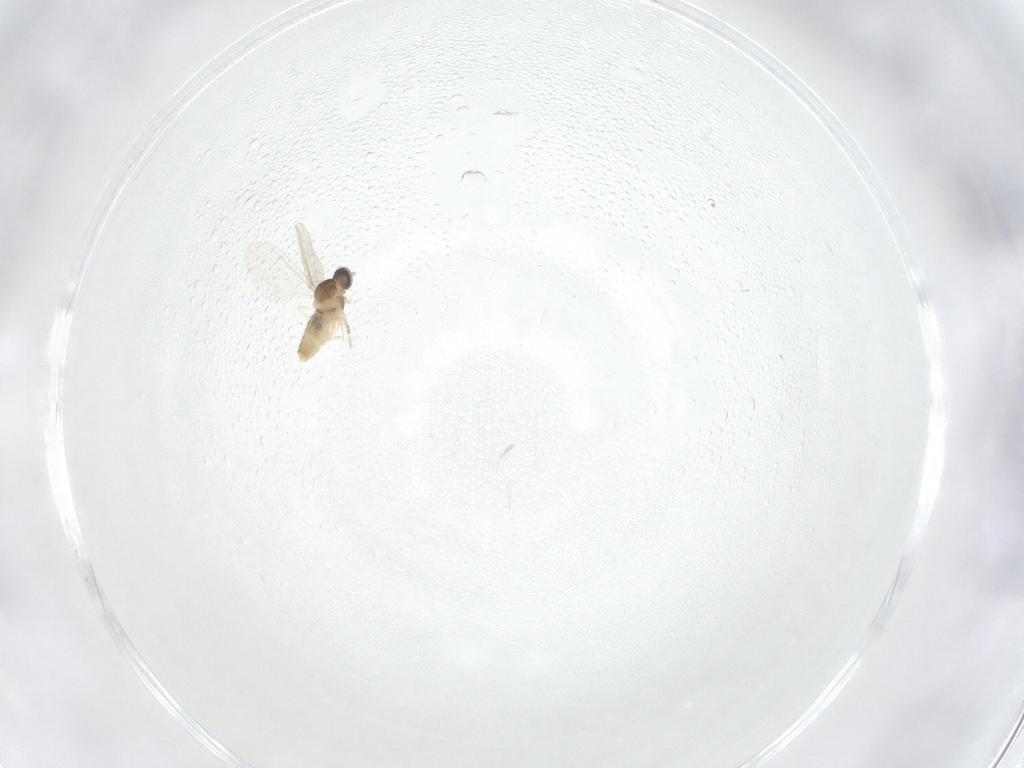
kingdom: Animalia
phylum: Arthropoda
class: Insecta
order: Diptera
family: Cecidomyiidae
